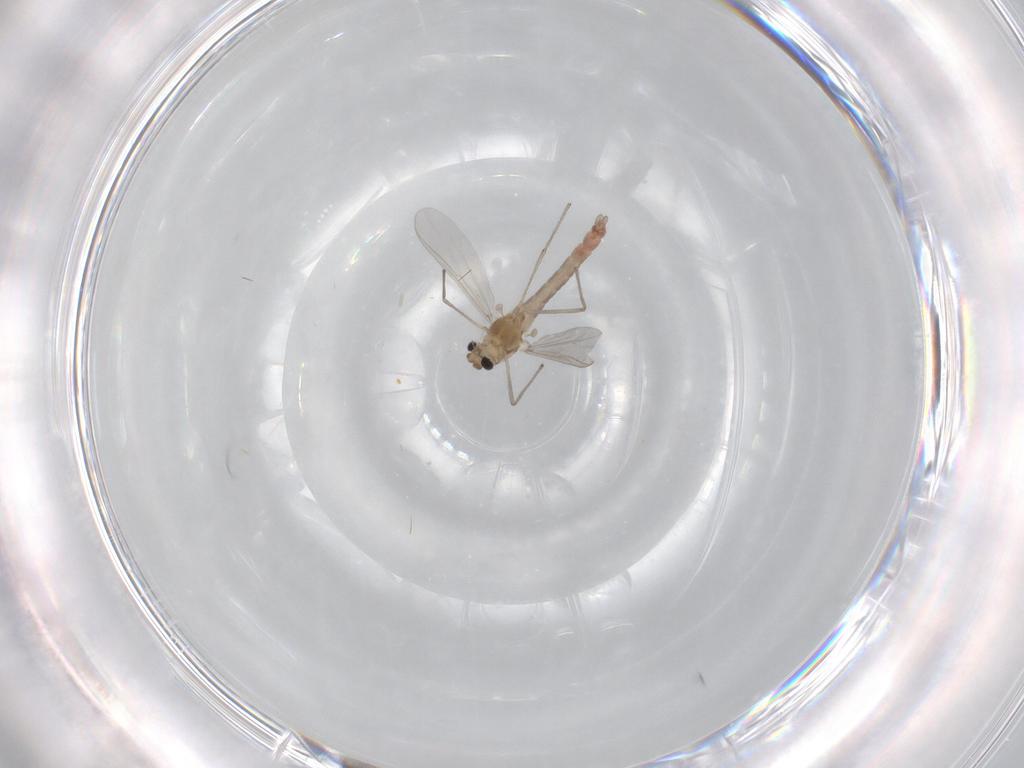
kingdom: Animalia
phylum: Arthropoda
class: Insecta
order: Diptera
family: Chironomidae
